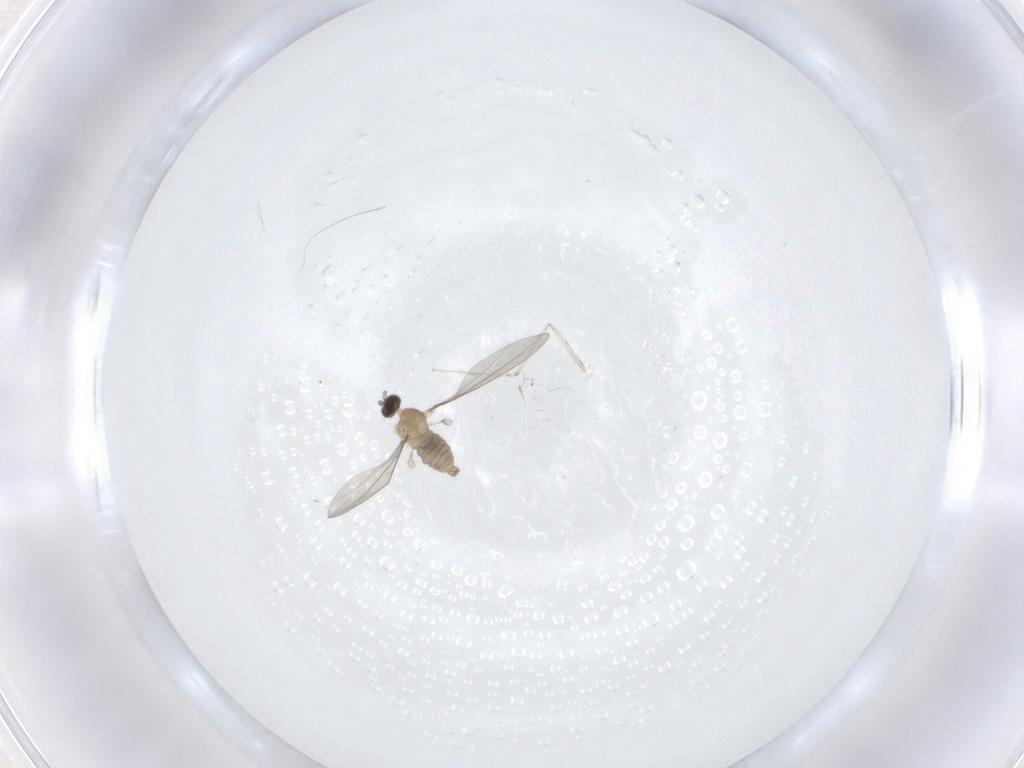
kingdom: Animalia
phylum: Arthropoda
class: Insecta
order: Diptera
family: Cecidomyiidae
